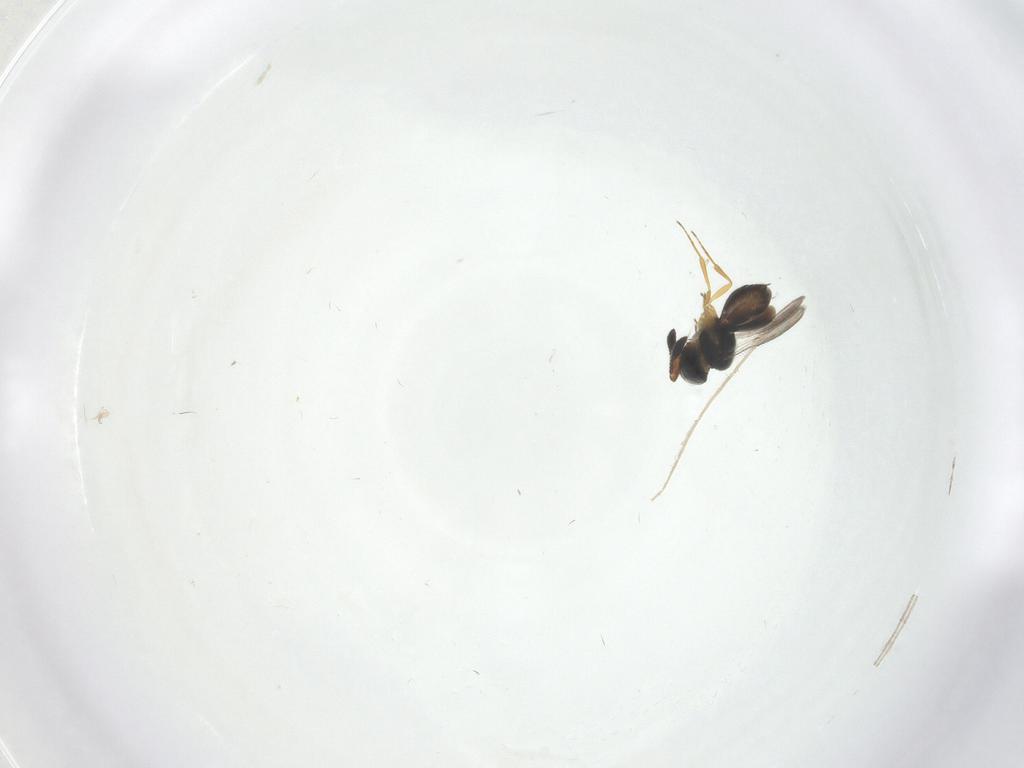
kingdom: Animalia
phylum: Arthropoda
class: Insecta
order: Hymenoptera
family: Scelionidae
